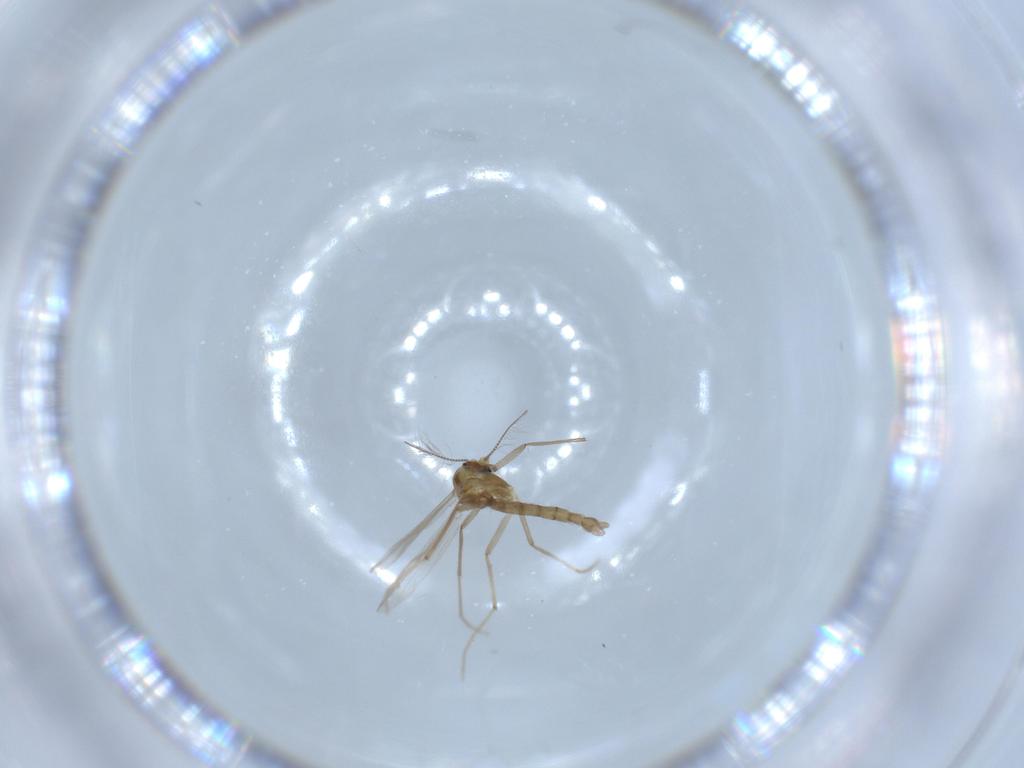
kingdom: Animalia
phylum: Arthropoda
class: Insecta
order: Diptera
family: Chironomidae
